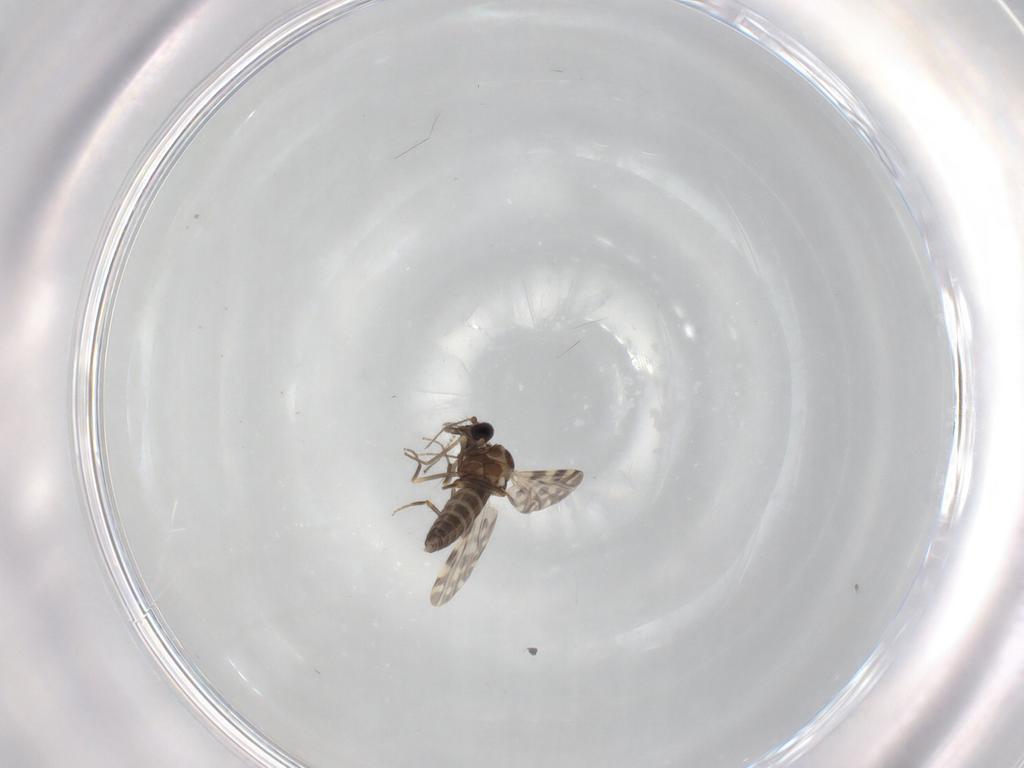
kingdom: Animalia
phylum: Arthropoda
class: Insecta
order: Diptera
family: Ceratopogonidae
